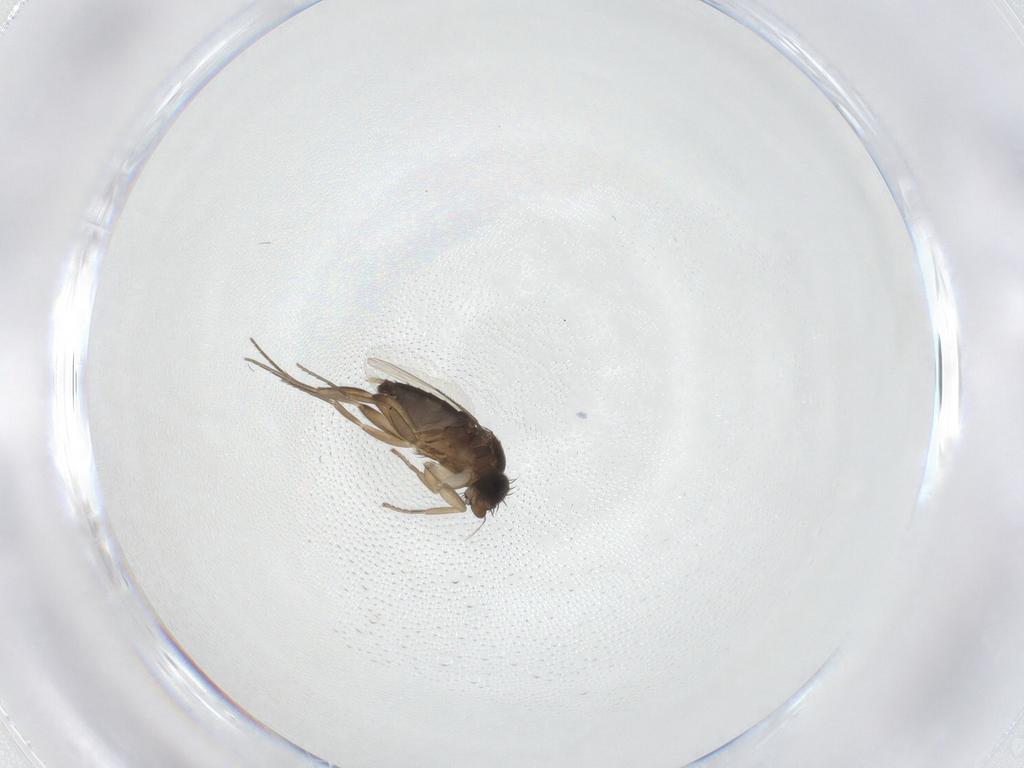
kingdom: Animalia
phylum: Arthropoda
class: Insecta
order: Diptera
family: Phoridae
